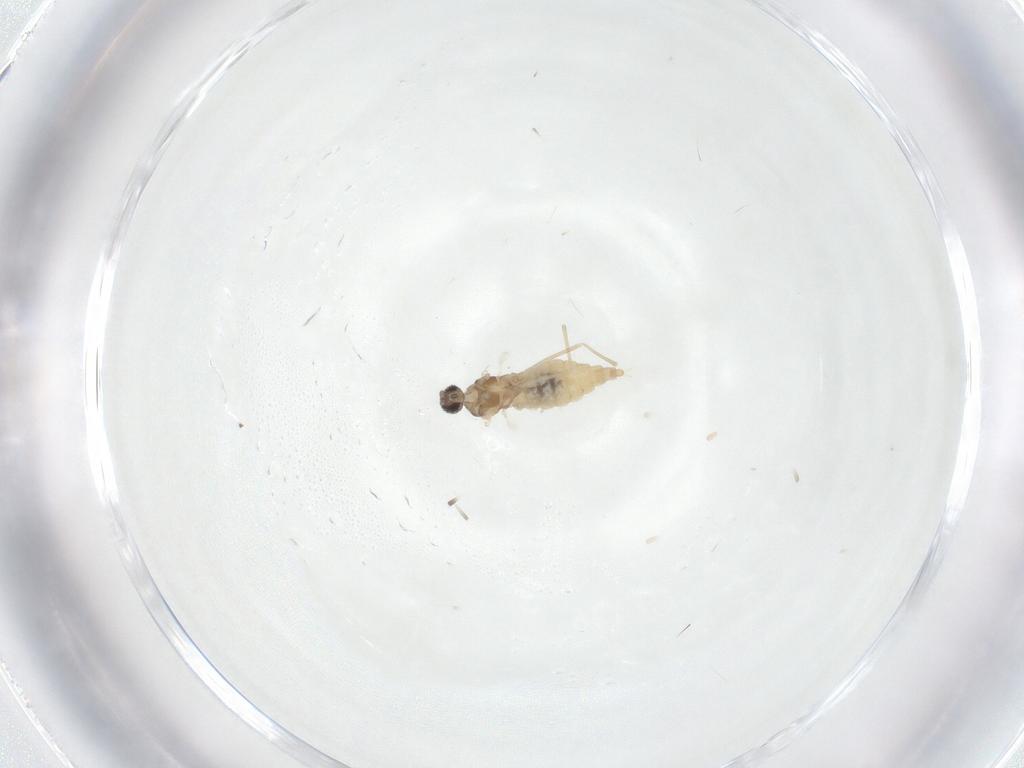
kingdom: Animalia
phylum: Arthropoda
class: Insecta
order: Diptera
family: Cecidomyiidae
